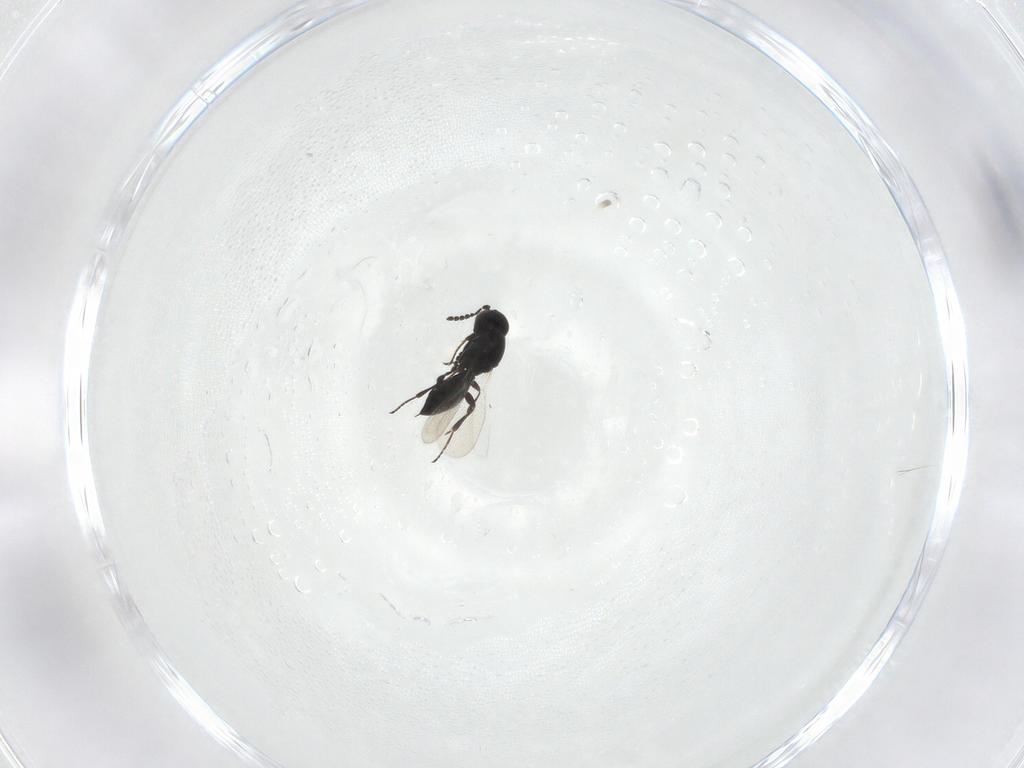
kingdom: Animalia
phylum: Arthropoda
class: Insecta
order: Hymenoptera
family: Platygastridae
